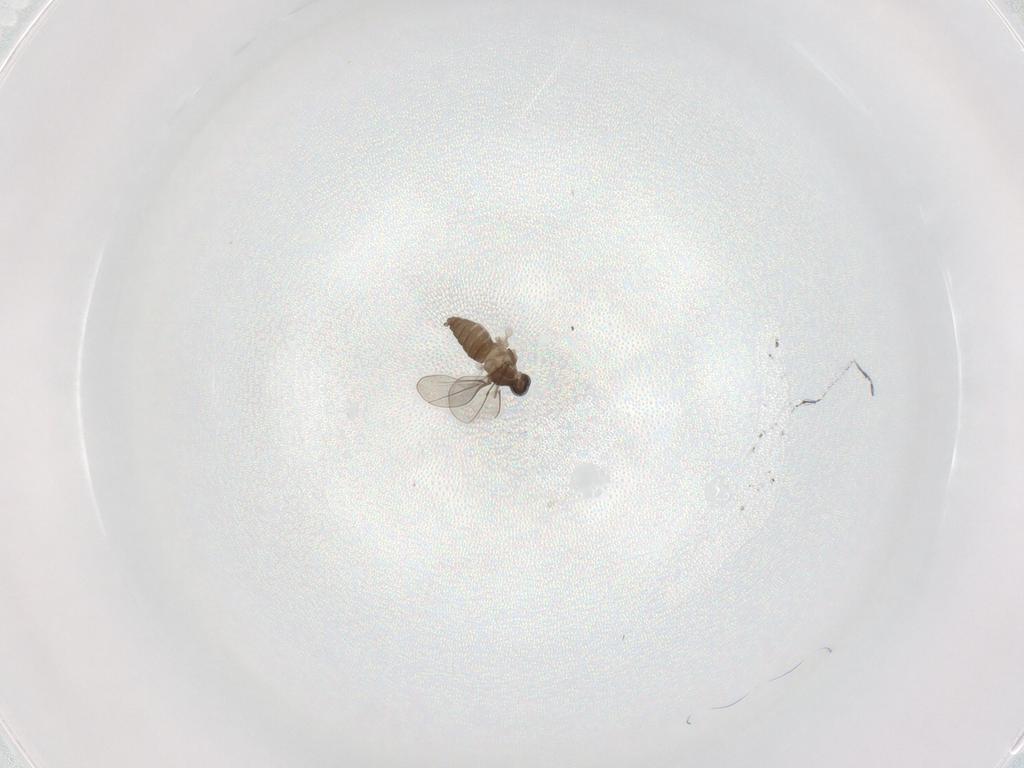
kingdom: Animalia
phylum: Arthropoda
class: Insecta
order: Diptera
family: Cecidomyiidae
